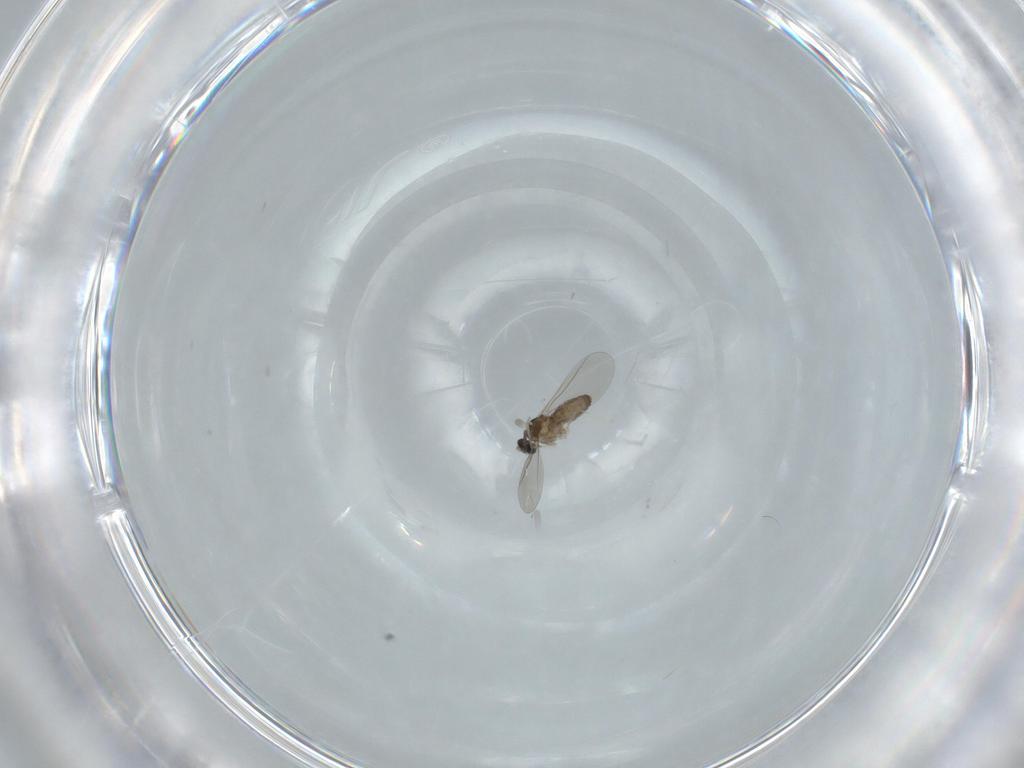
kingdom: Animalia
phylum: Arthropoda
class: Insecta
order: Diptera
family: Cecidomyiidae
